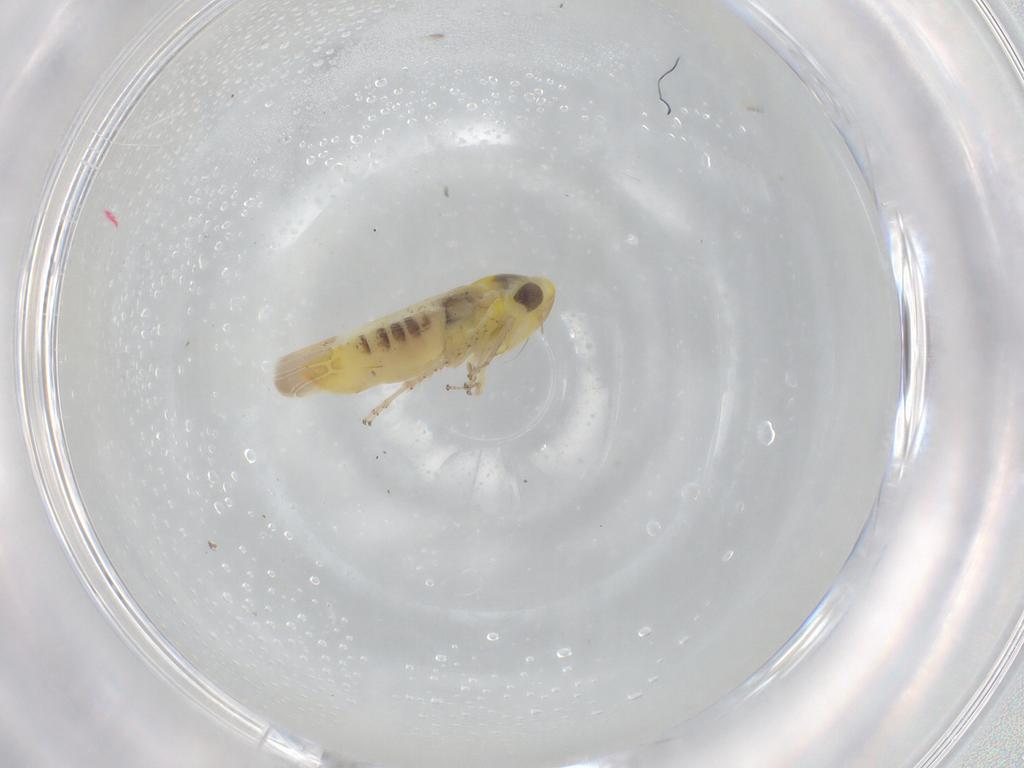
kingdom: Animalia
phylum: Arthropoda
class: Insecta
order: Hemiptera
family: Cicadellidae
